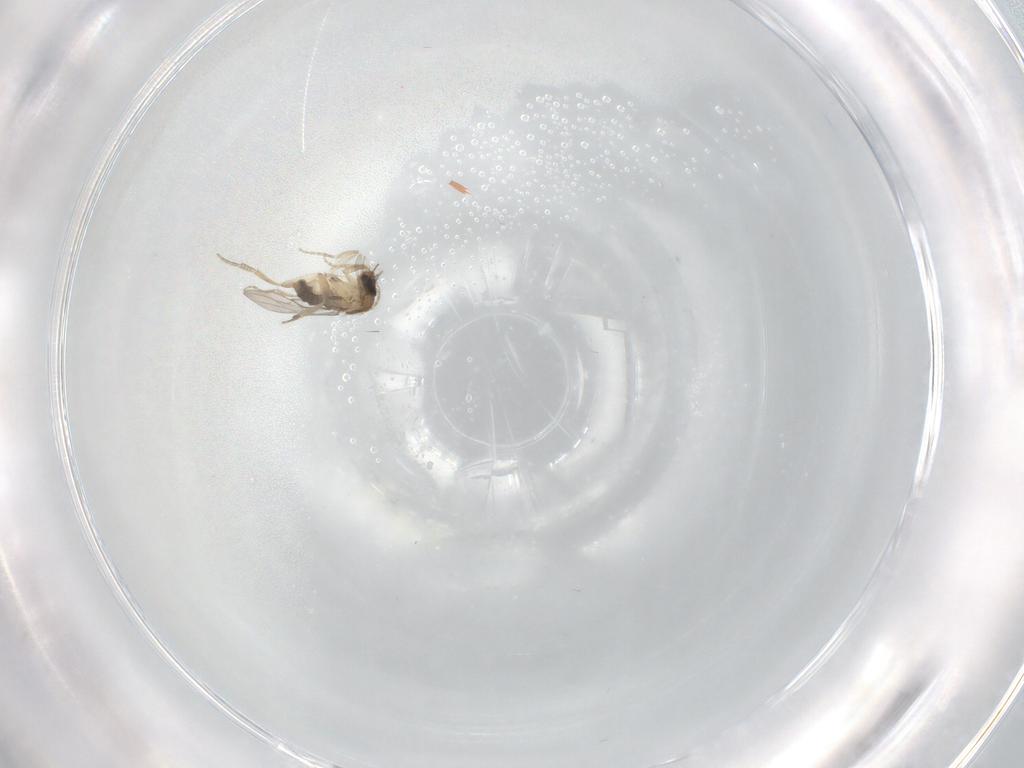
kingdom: Animalia
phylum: Arthropoda
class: Insecta
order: Diptera
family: Phoridae
